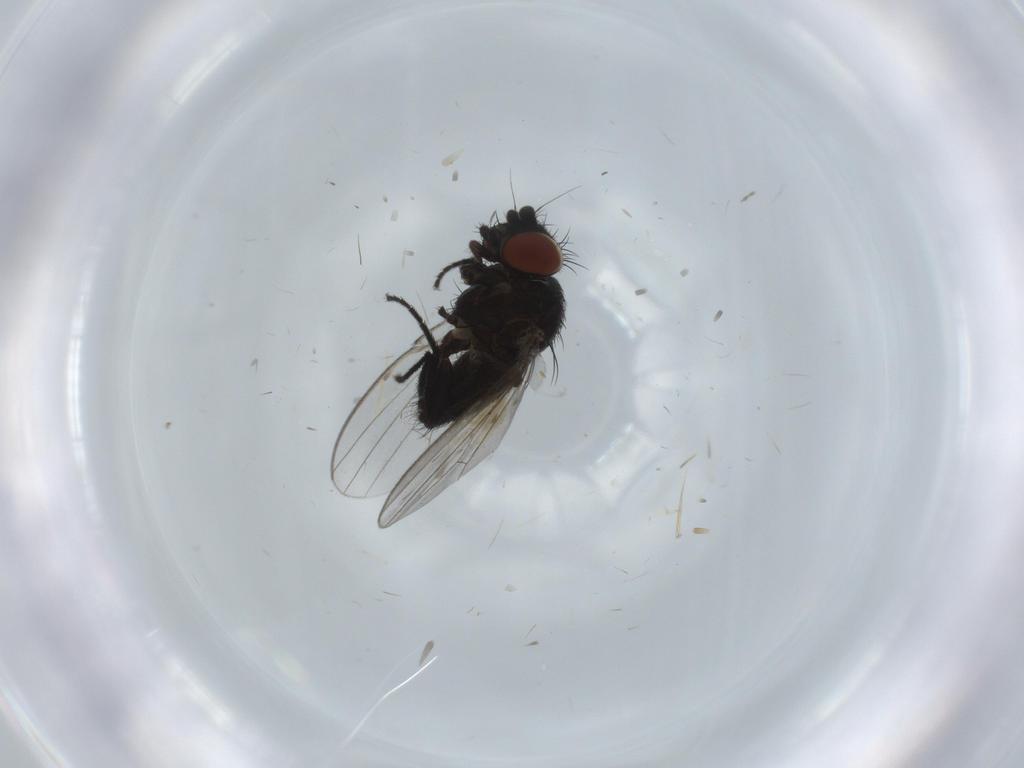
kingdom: Animalia
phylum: Arthropoda
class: Insecta
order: Diptera
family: Milichiidae
